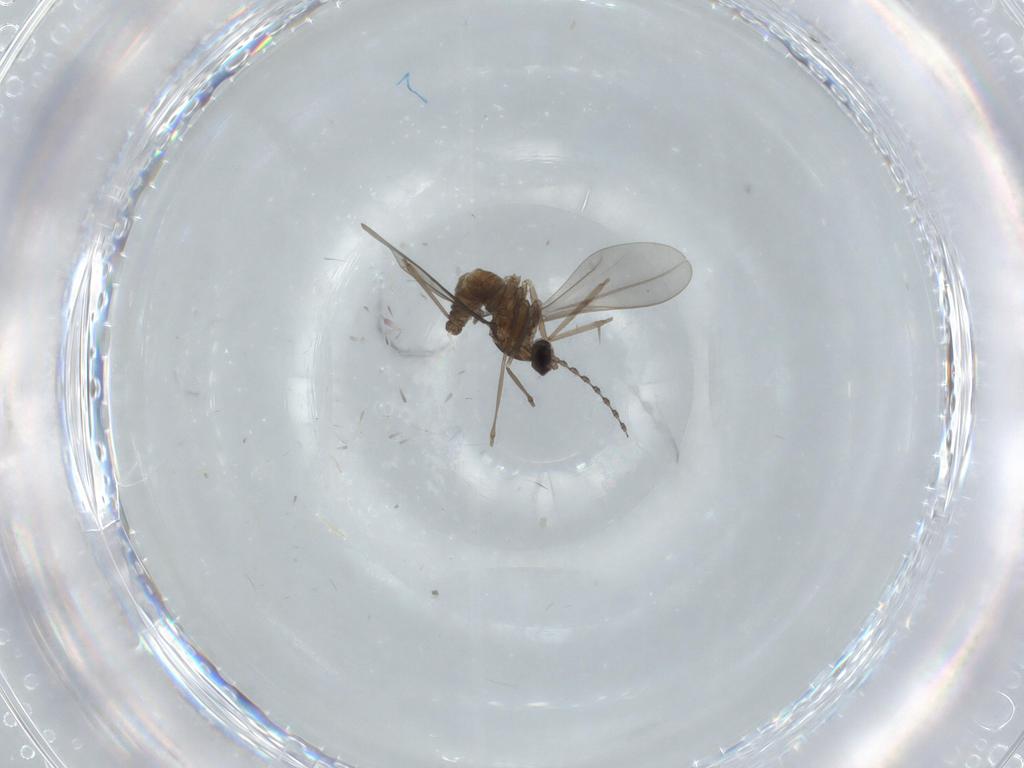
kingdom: Animalia
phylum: Arthropoda
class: Insecta
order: Diptera
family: Cecidomyiidae
